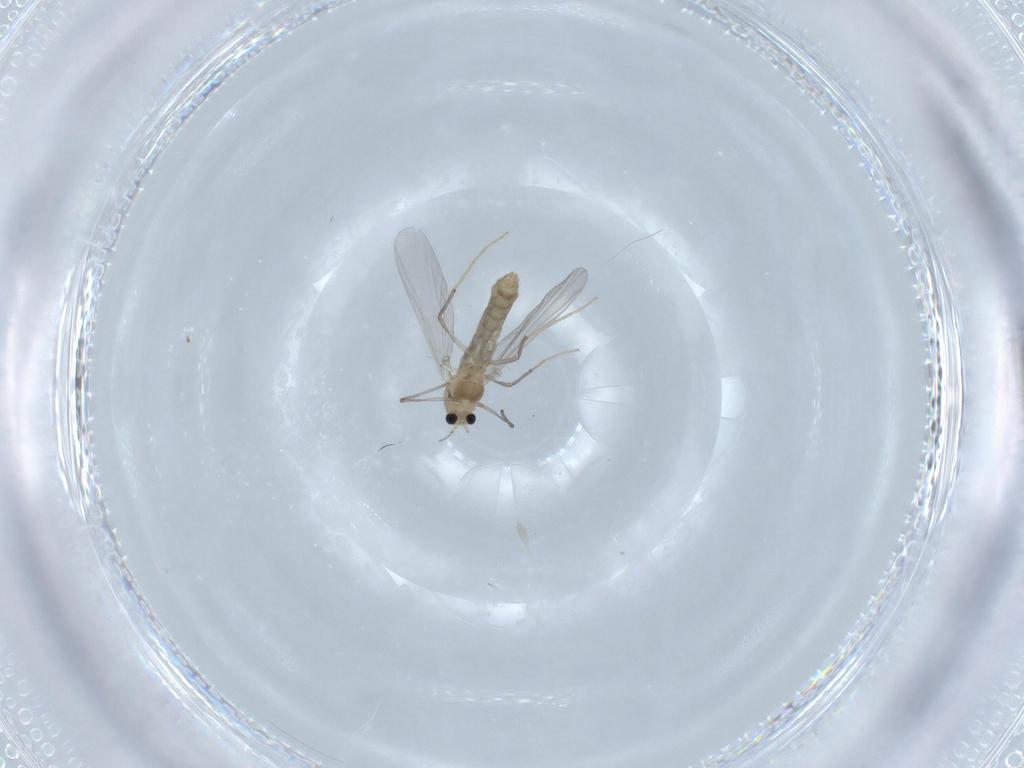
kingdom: Animalia
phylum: Arthropoda
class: Insecta
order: Diptera
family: Chironomidae
